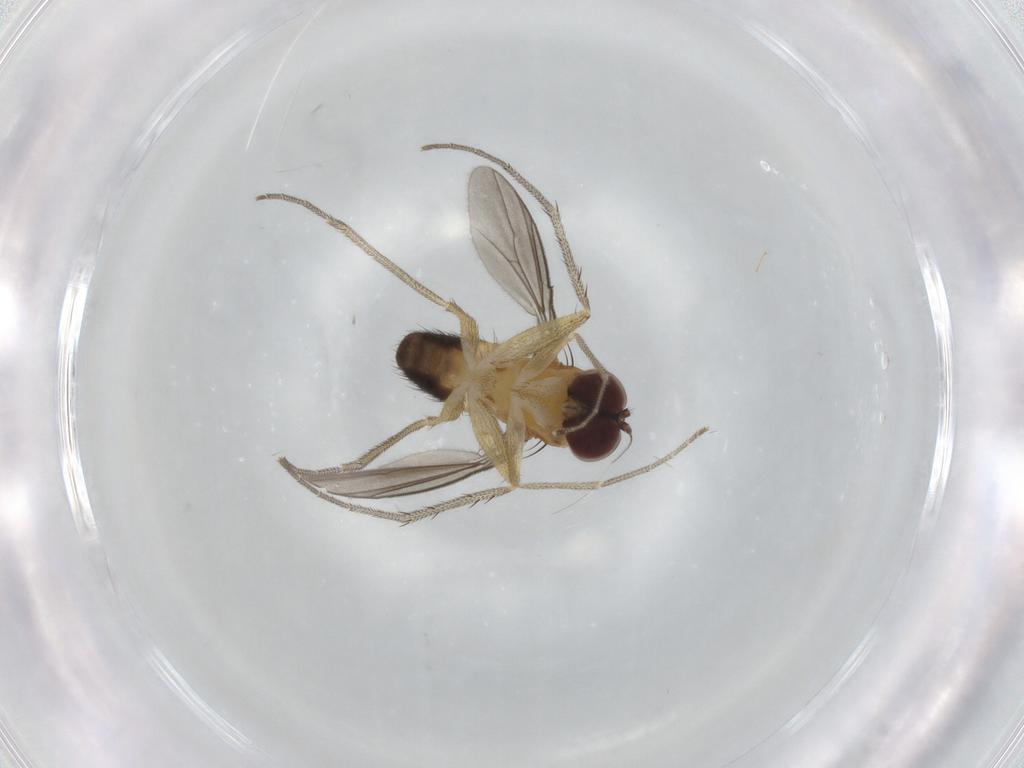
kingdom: Animalia
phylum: Arthropoda
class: Insecta
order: Diptera
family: Dolichopodidae
